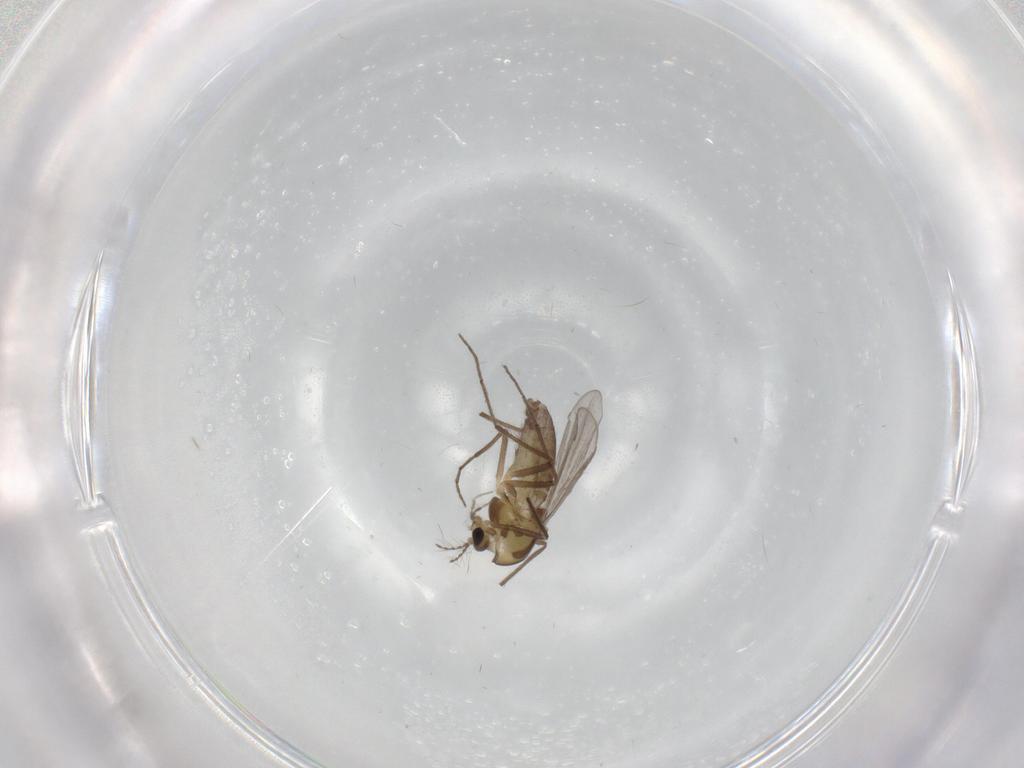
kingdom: Animalia
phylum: Arthropoda
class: Insecta
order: Diptera
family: Chironomidae
